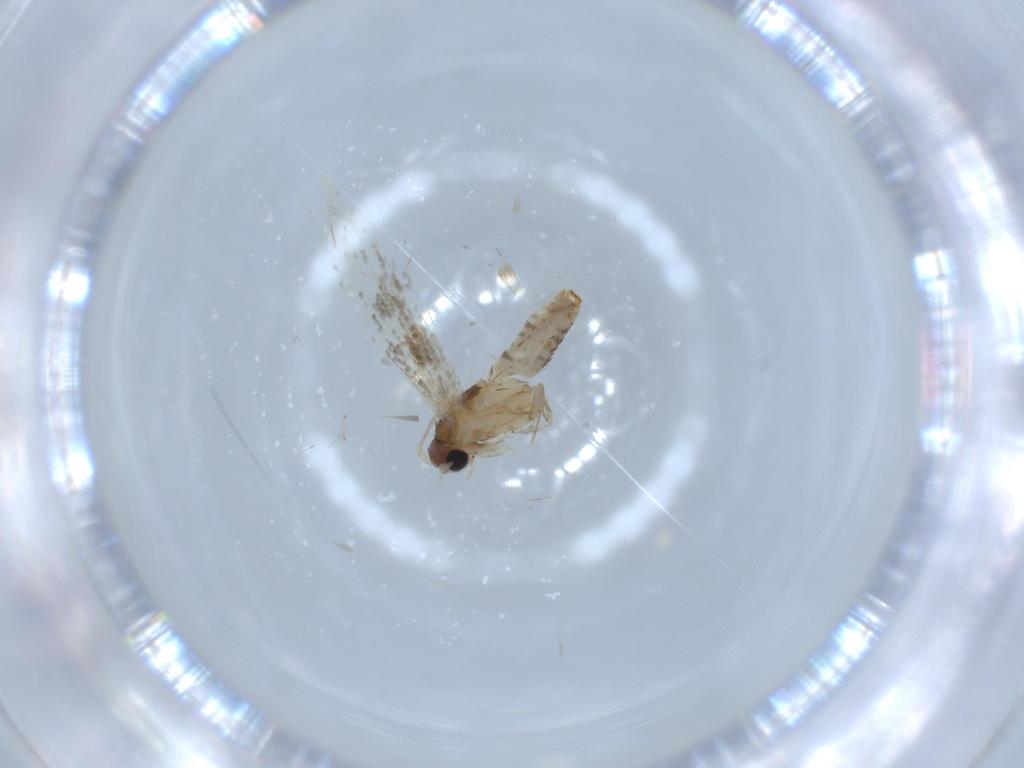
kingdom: Animalia
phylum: Arthropoda
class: Insecta
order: Lepidoptera
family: Tineidae
